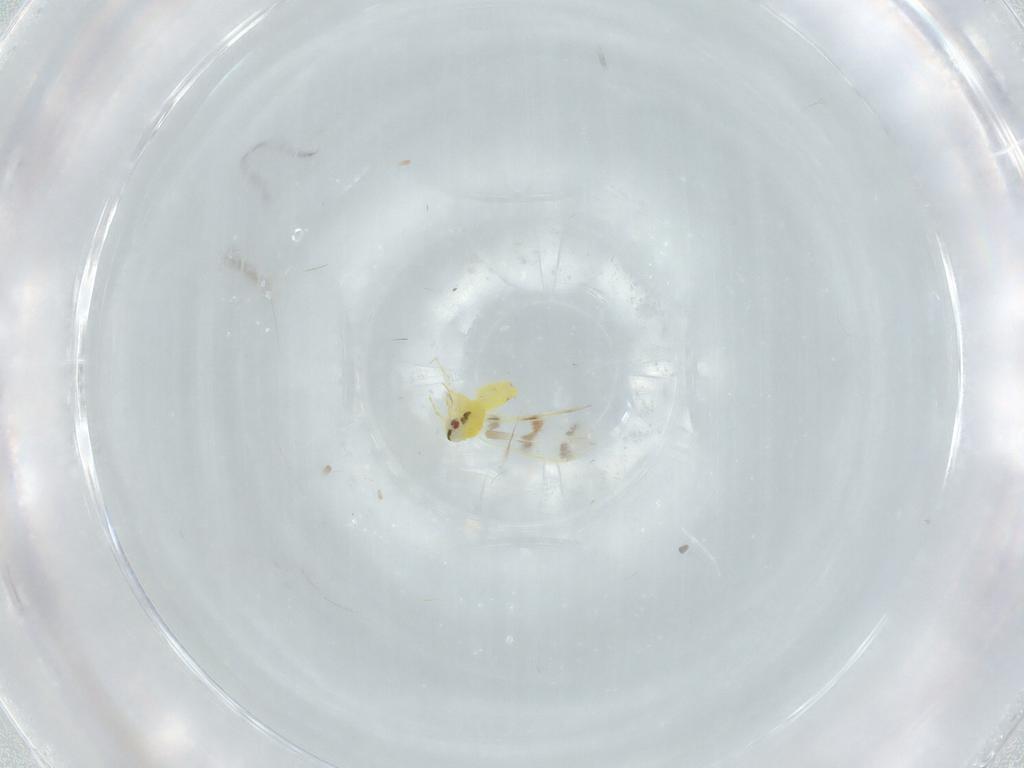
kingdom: Animalia
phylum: Arthropoda
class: Insecta
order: Hemiptera
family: Aleyrodidae
